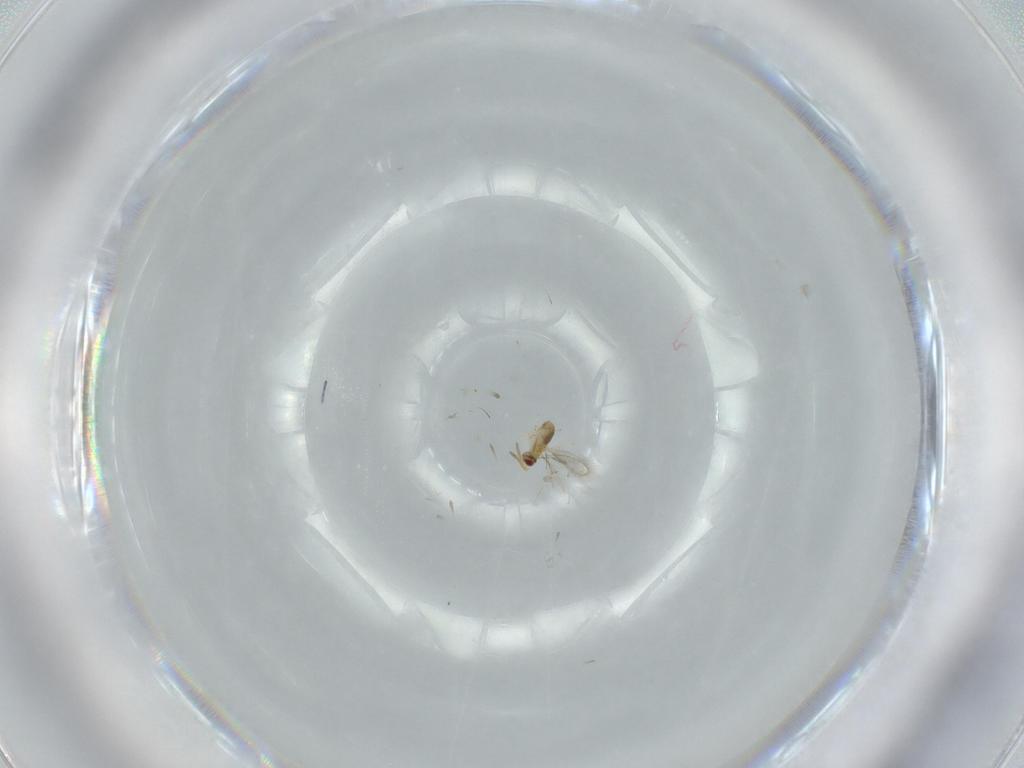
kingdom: Animalia
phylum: Arthropoda
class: Insecta
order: Hymenoptera
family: Aphelinidae
